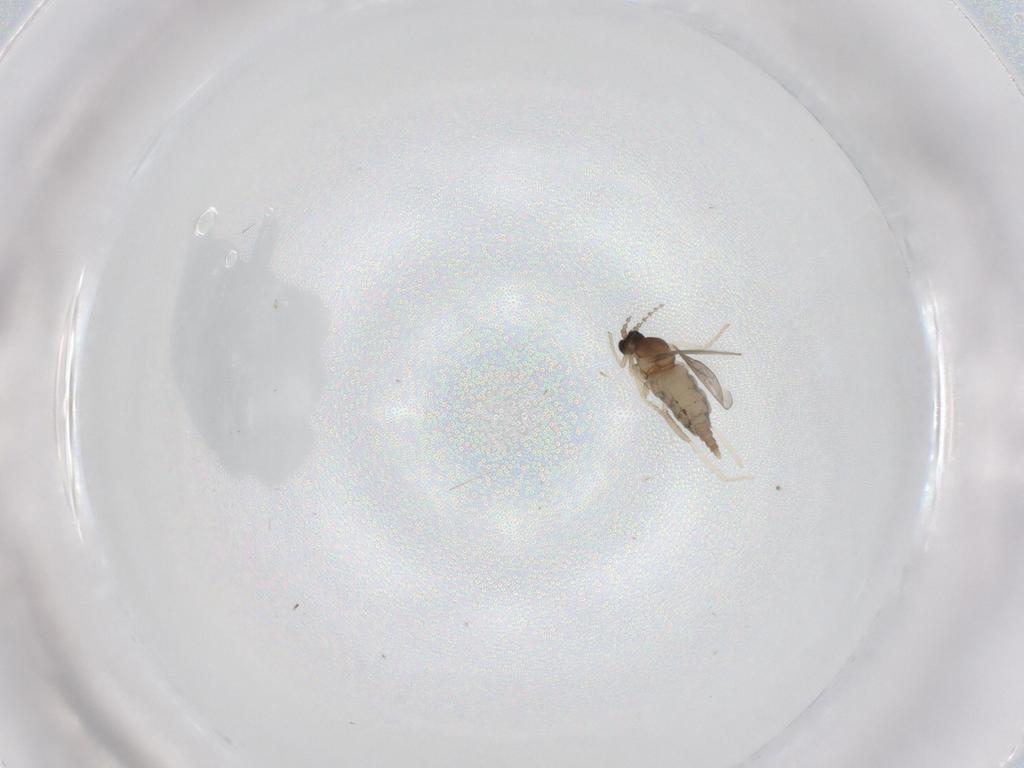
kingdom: Animalia
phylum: Arthropoda
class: Insecta
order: Diptera
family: Cecidomyiidae
